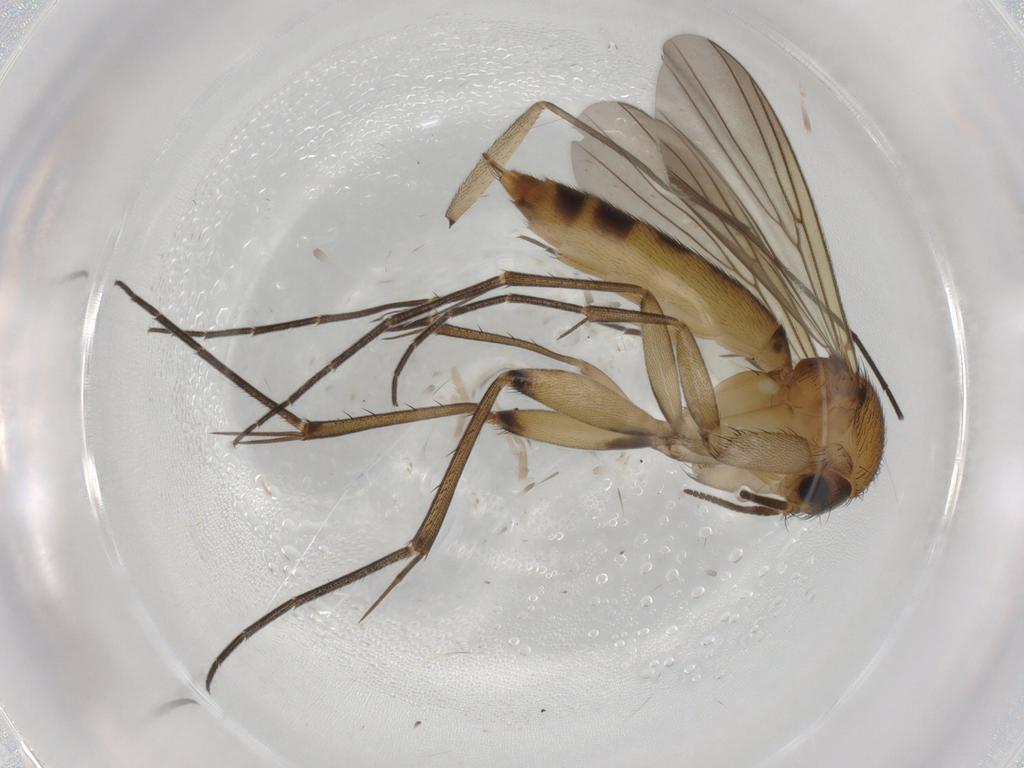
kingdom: Animalia
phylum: Arthropoda
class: Insecta
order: Diptera
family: Mycetophilidae
